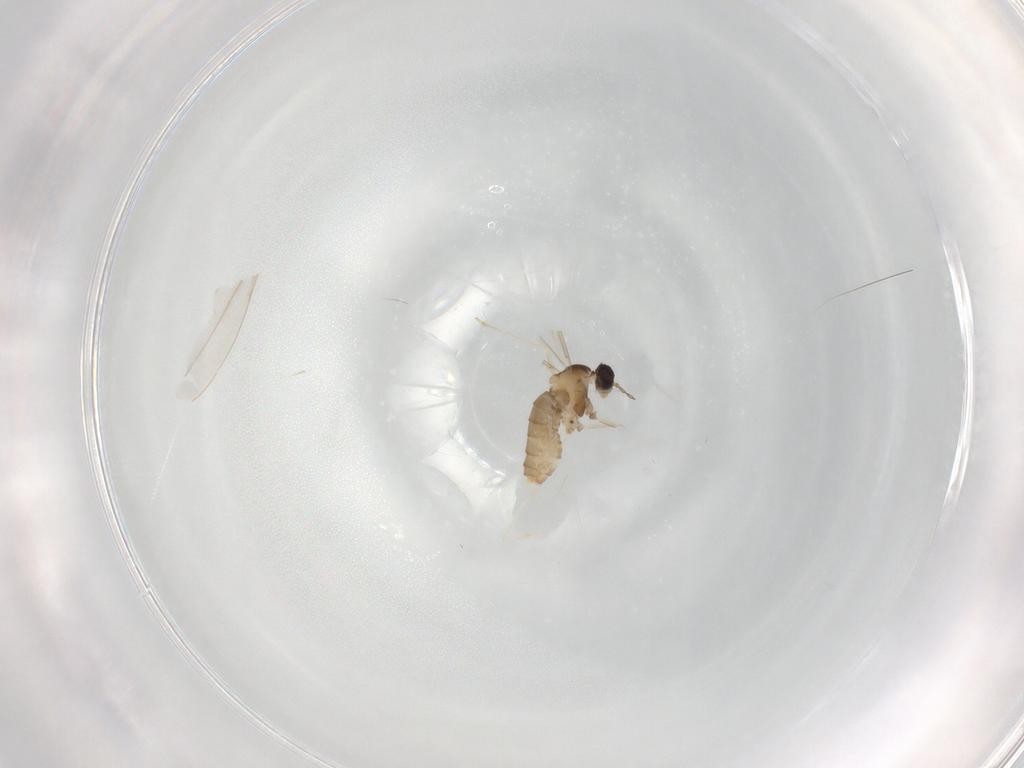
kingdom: Animalia
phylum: Arthropoda
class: Insecta
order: Diptera
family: Cecidomyiidae
